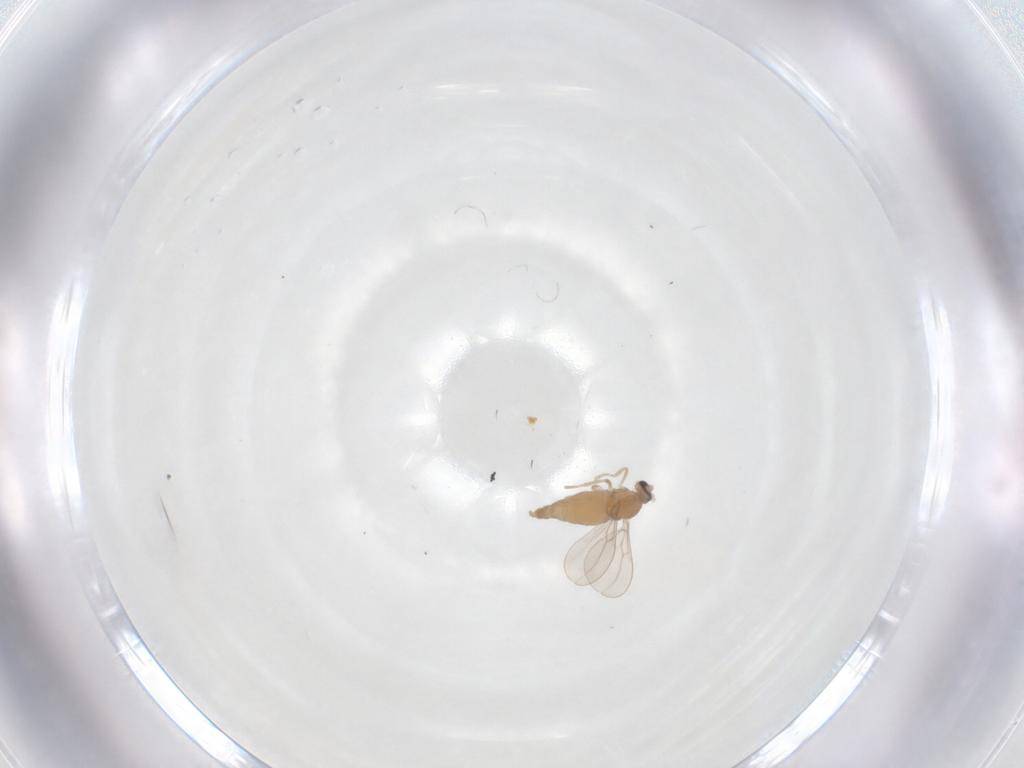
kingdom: Animalia
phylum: Arthropoda
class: Insecta
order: Diptera
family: Cecidomyiidae
